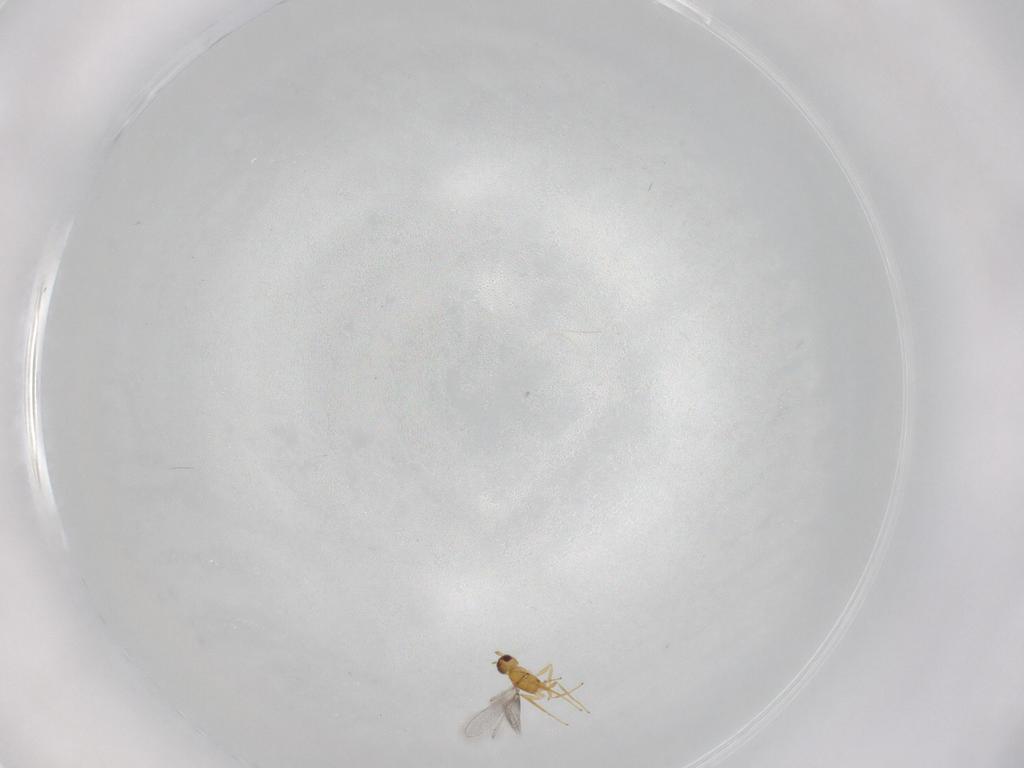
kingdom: Animalia
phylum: Arthropoda
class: Insecta
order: Hymenoptera
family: Mymaridae
